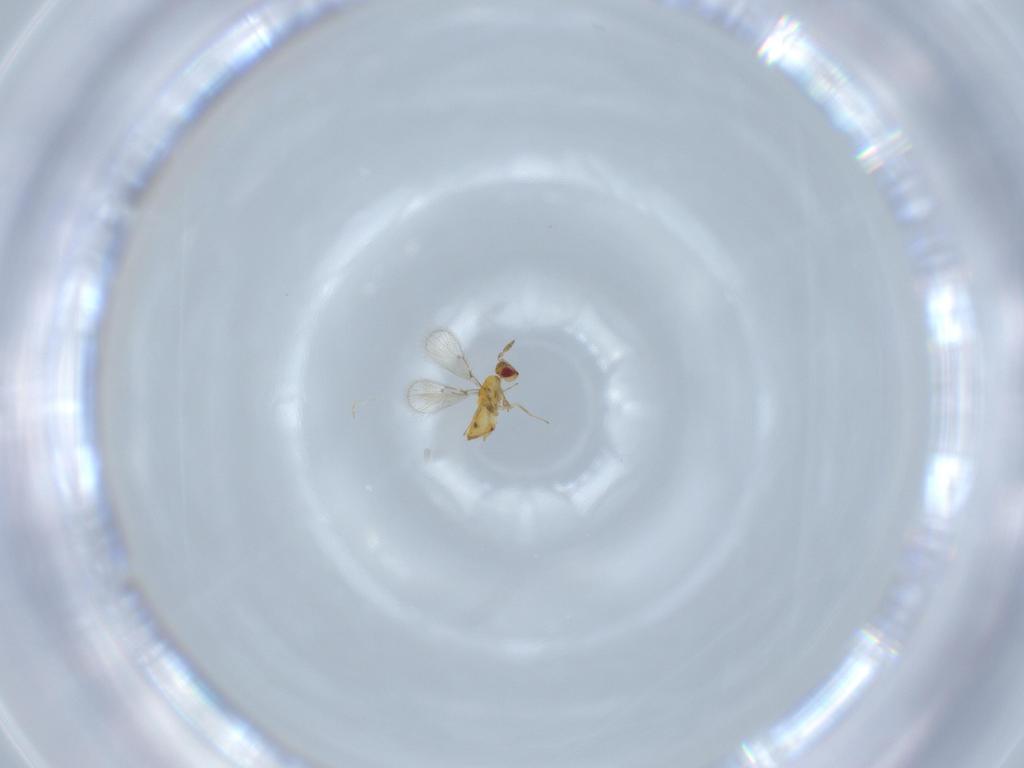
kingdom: Animalia
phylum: Arthropoda
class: Insecta
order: Hymenoptera
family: Trichogrammatidae
